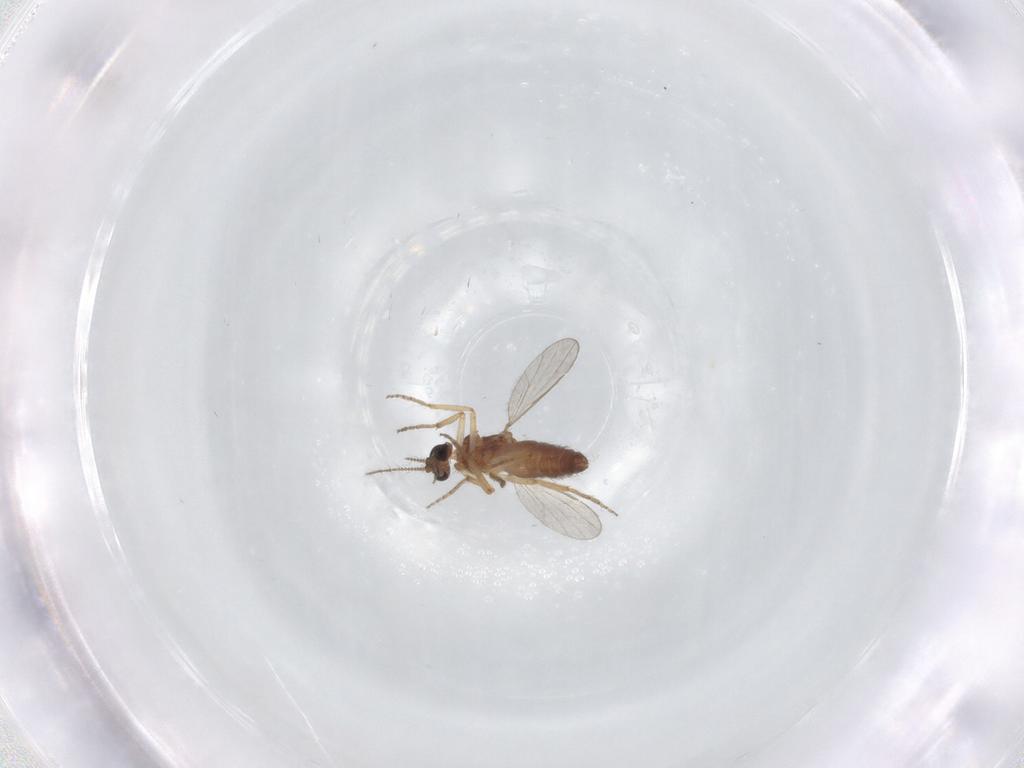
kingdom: Animalia
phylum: Arthropoda
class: Insecta
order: Diptera
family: Ceratopogonidae
